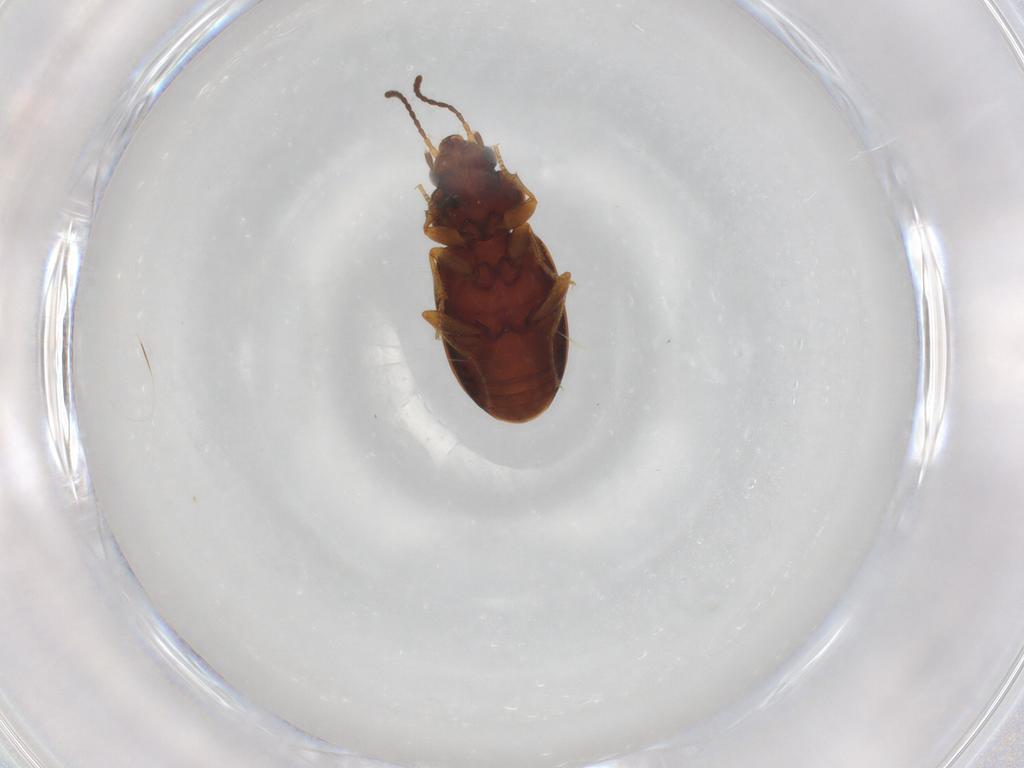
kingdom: Animalia
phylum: Arthropoda
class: Insecta
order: Coleoptera
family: Carabidae
